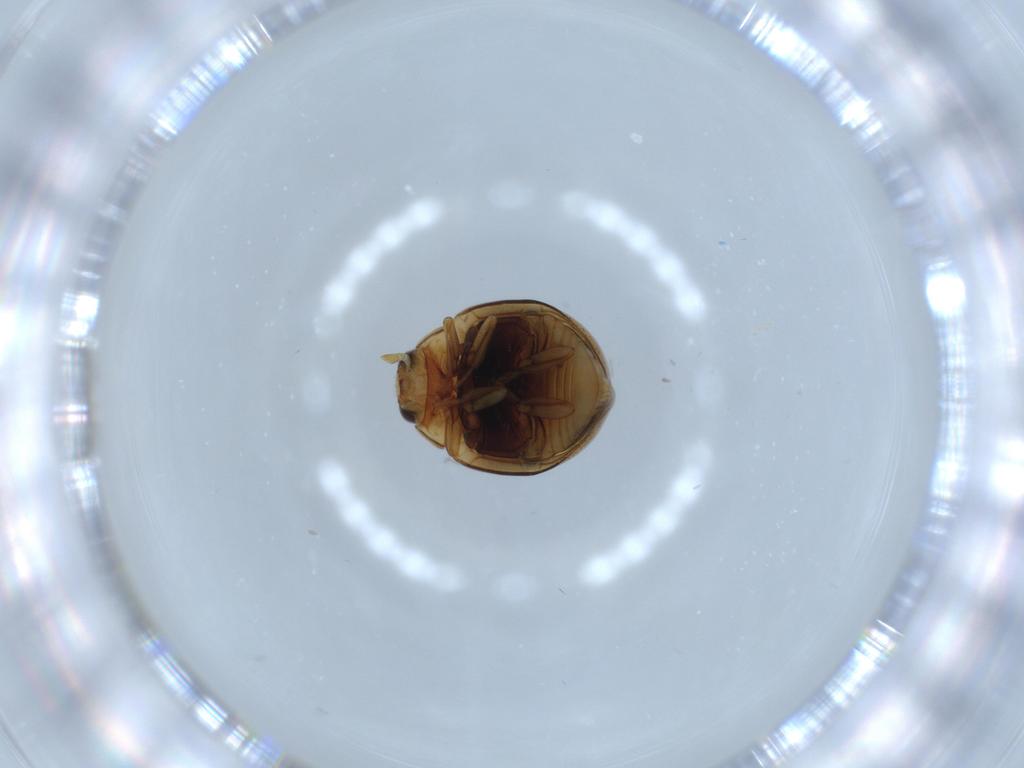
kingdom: Animalia
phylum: Arthropoda
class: Insecta
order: Coleoptera
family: Coccinellidae
